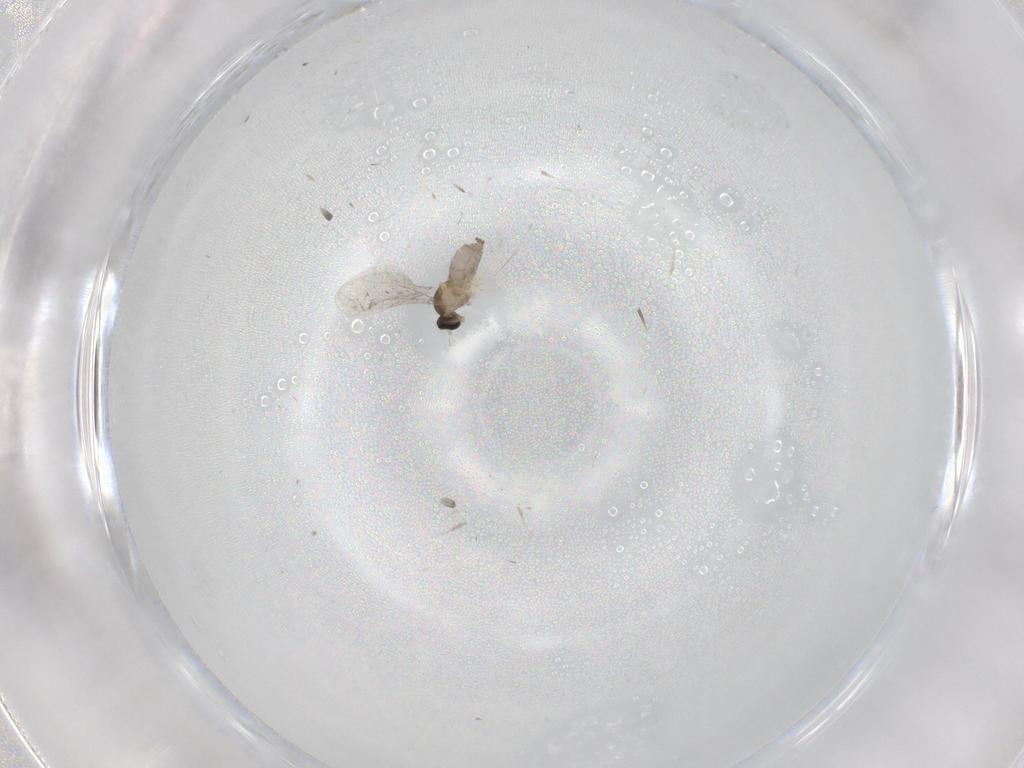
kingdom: Animalia
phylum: Arthropoda
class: Insecta
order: Diptera
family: Cecidomyiidae
